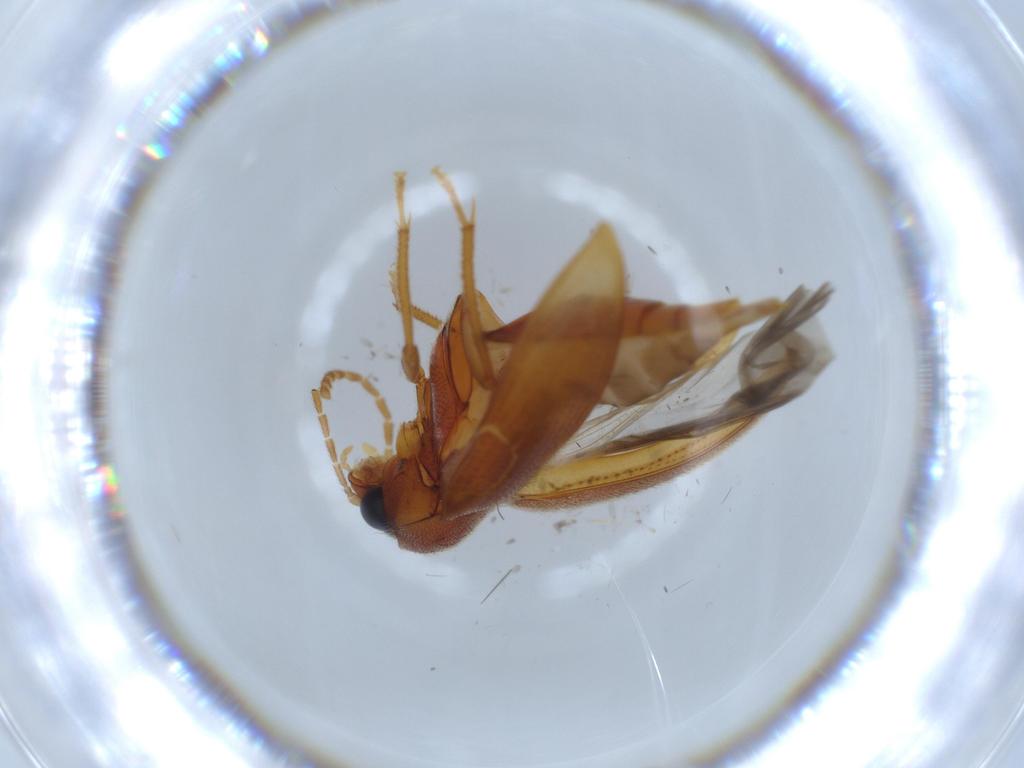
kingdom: Animalia
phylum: Arthropoda
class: Insecta
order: Coleoptera
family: Ptilodactylidae
